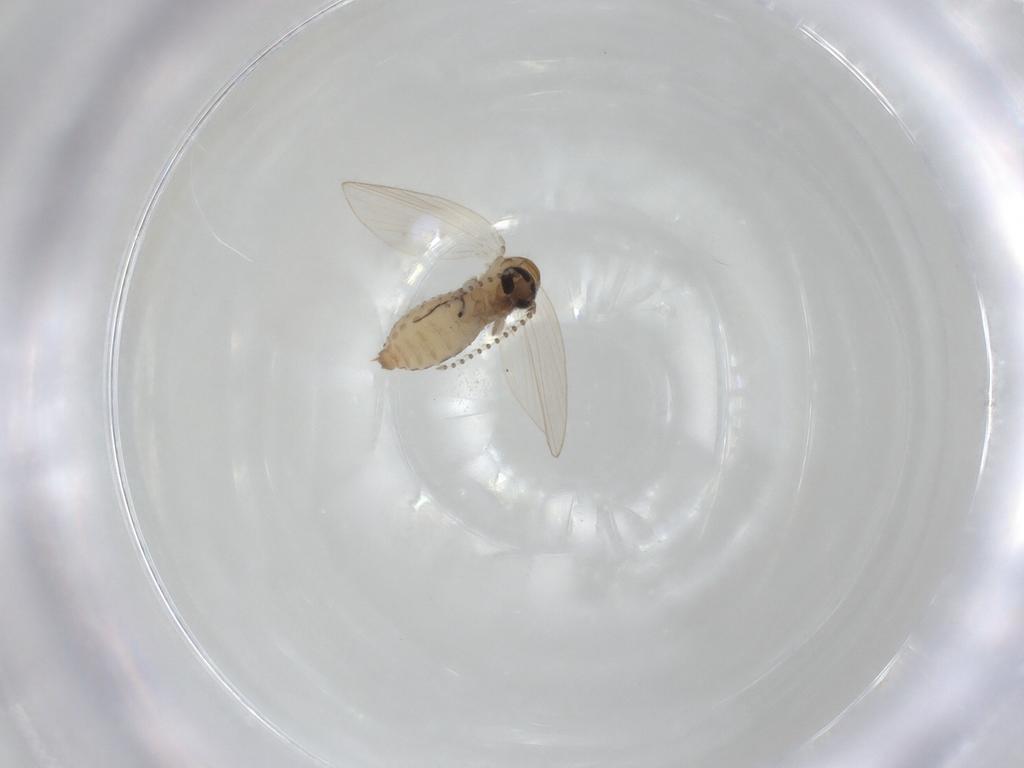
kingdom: Animalia
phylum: Arthropoda
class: Insecta
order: Diptera
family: Psychodidae
